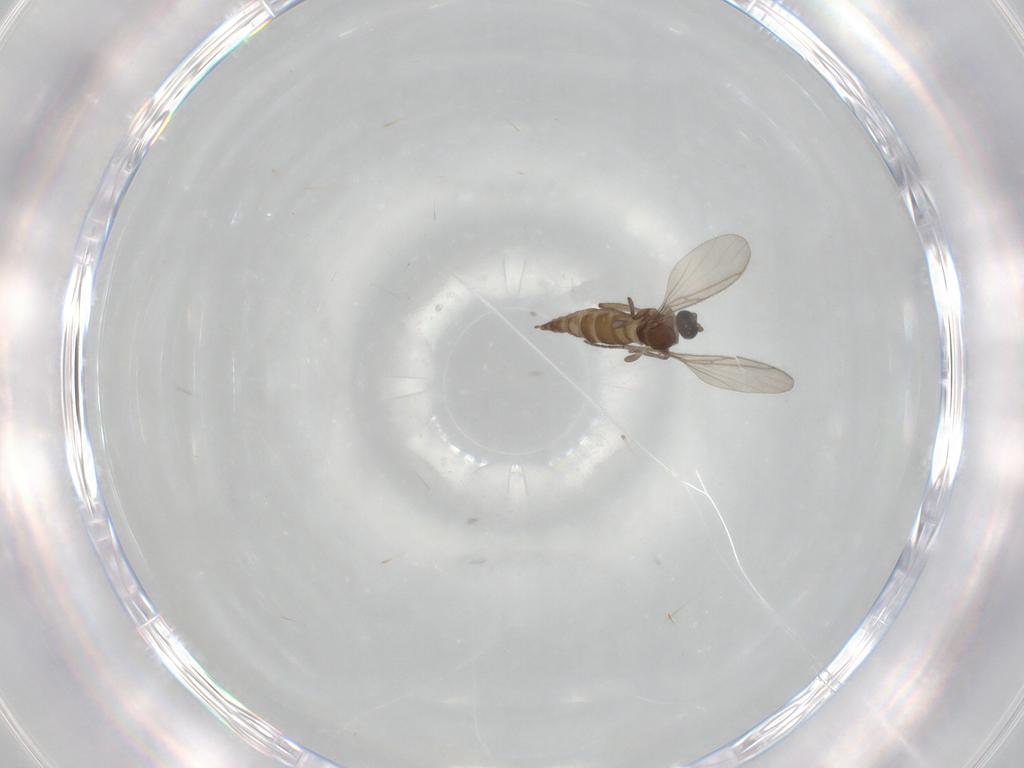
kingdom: Animalia
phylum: Arthropoda
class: Insecta
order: Diptera
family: Sciaridae
